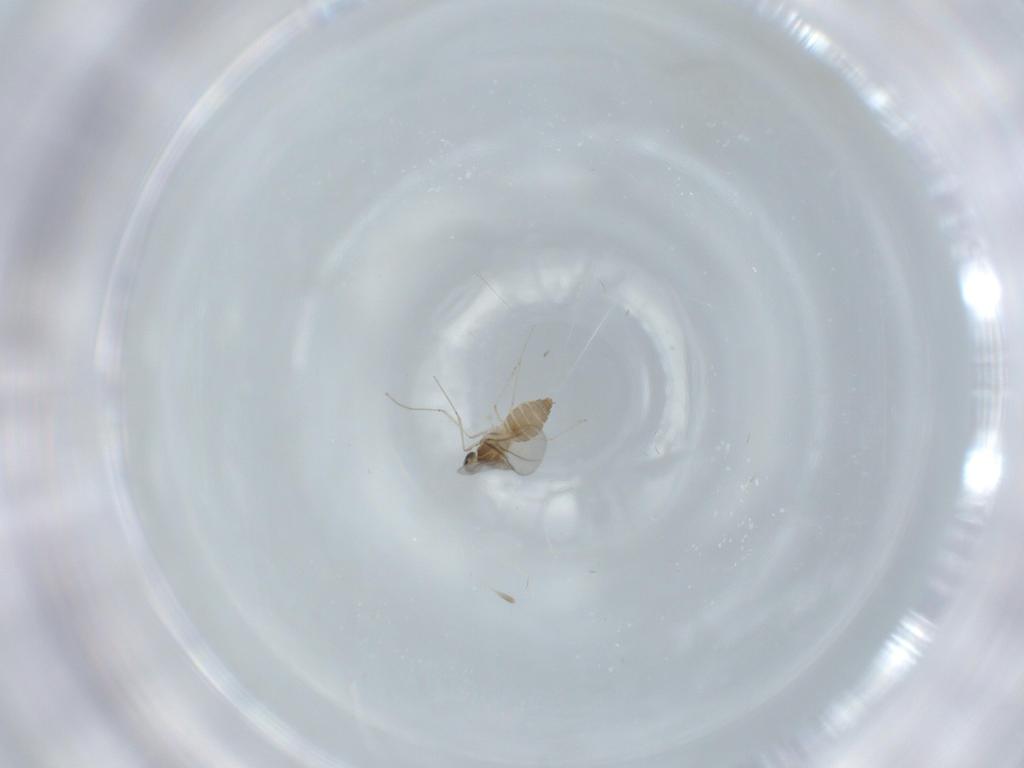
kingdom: Animalia
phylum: Arthropoda
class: Insecta
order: Diptera
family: Cecidomyiidae
